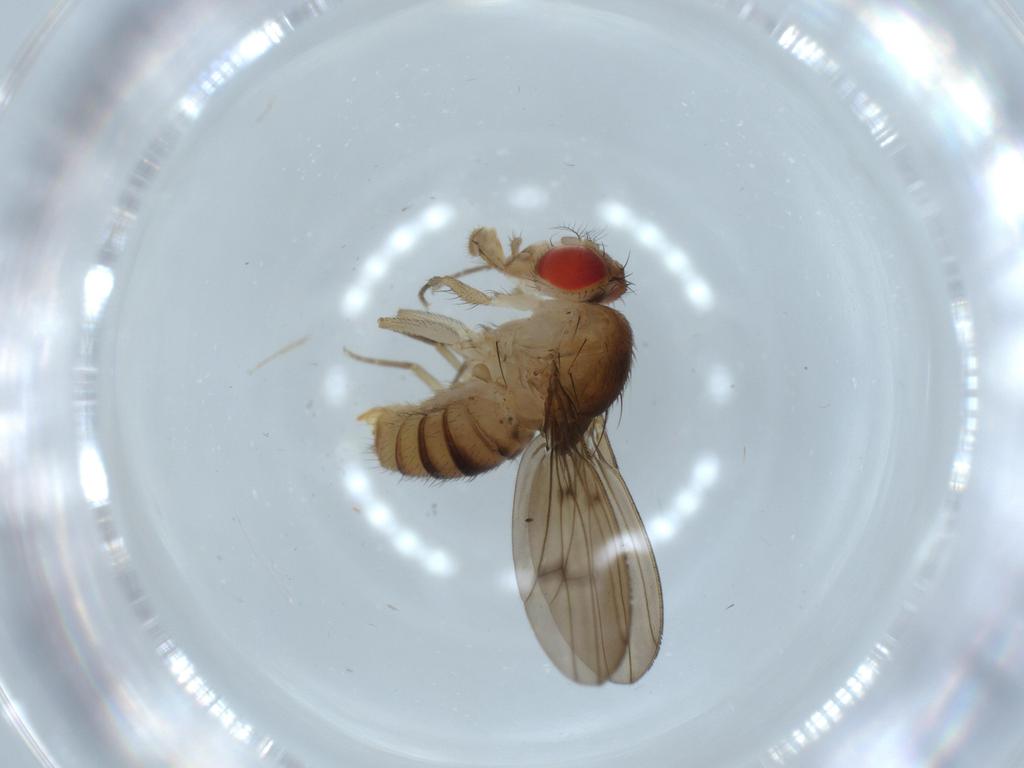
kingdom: Animalia
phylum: Arthropoda
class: Insecta
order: Diptera
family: Drosophilidae
